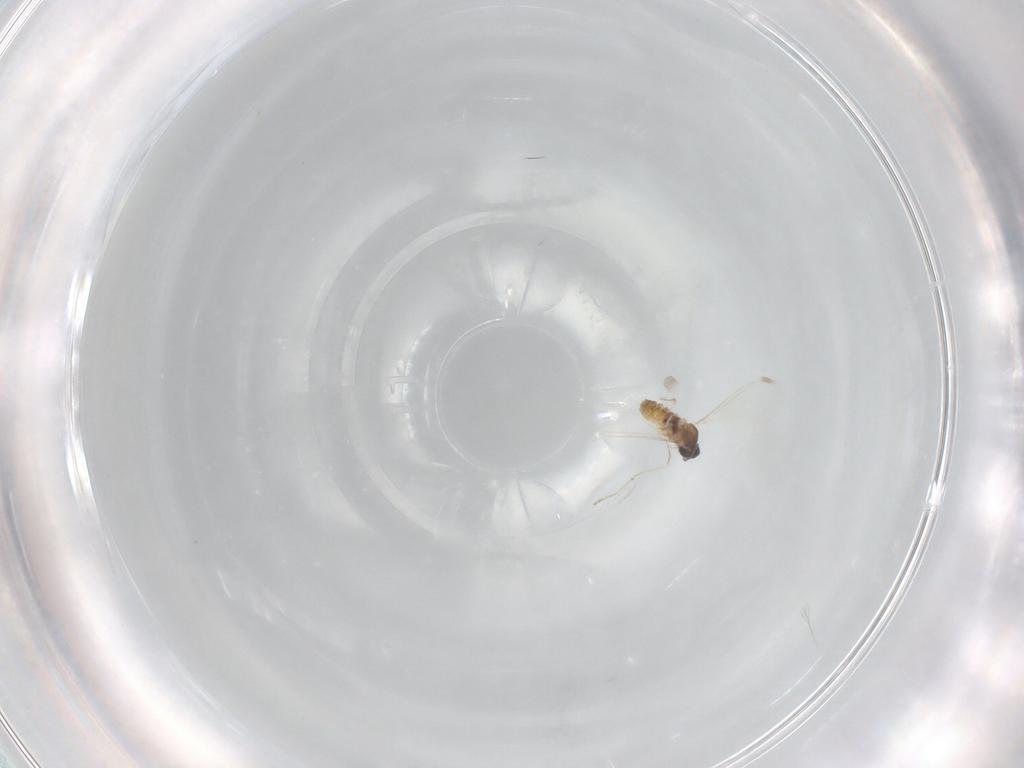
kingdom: Animalia
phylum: Arthropoda
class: Insecta
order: Diptera
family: Cecidomyiidae
